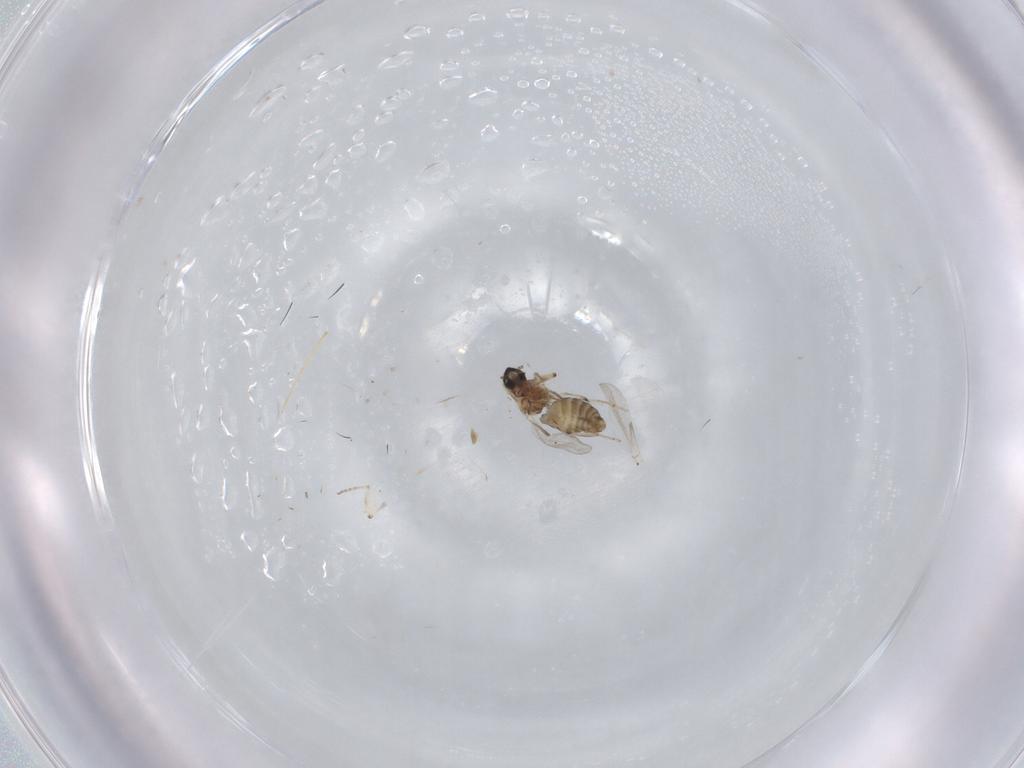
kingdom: Animalia
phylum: Arthropoda
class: Insecta
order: Diptera
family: Ceratopogonidae
